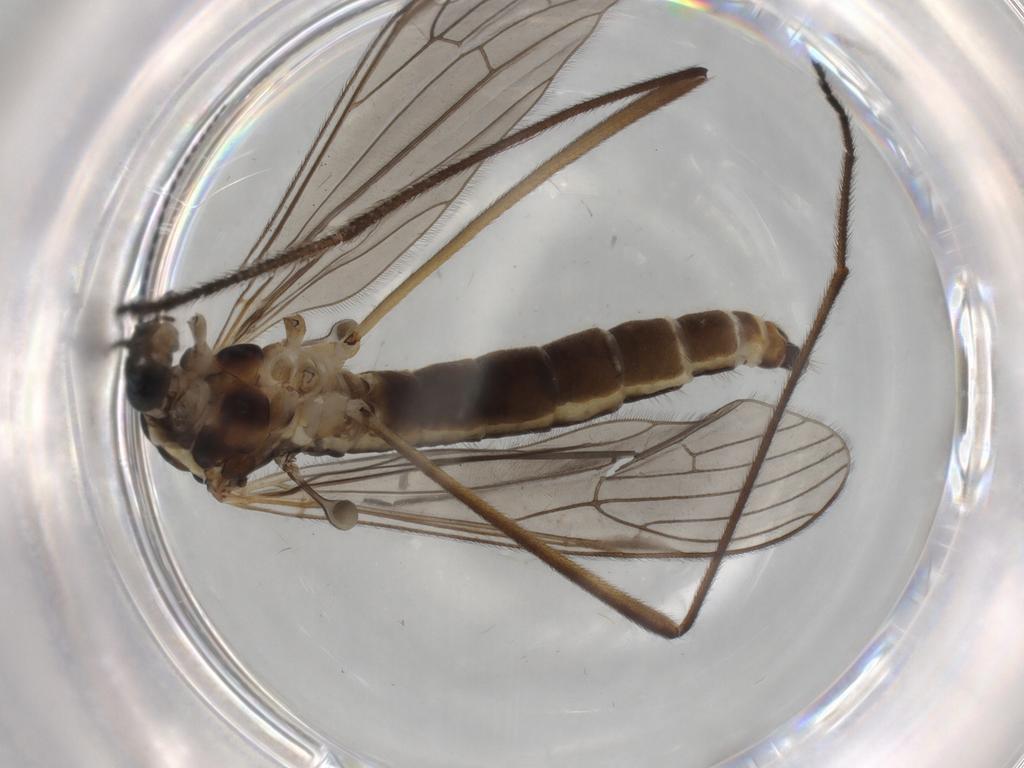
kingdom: Animalia
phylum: Arthropoda
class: Insecta
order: Diptera
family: Limoniidae
